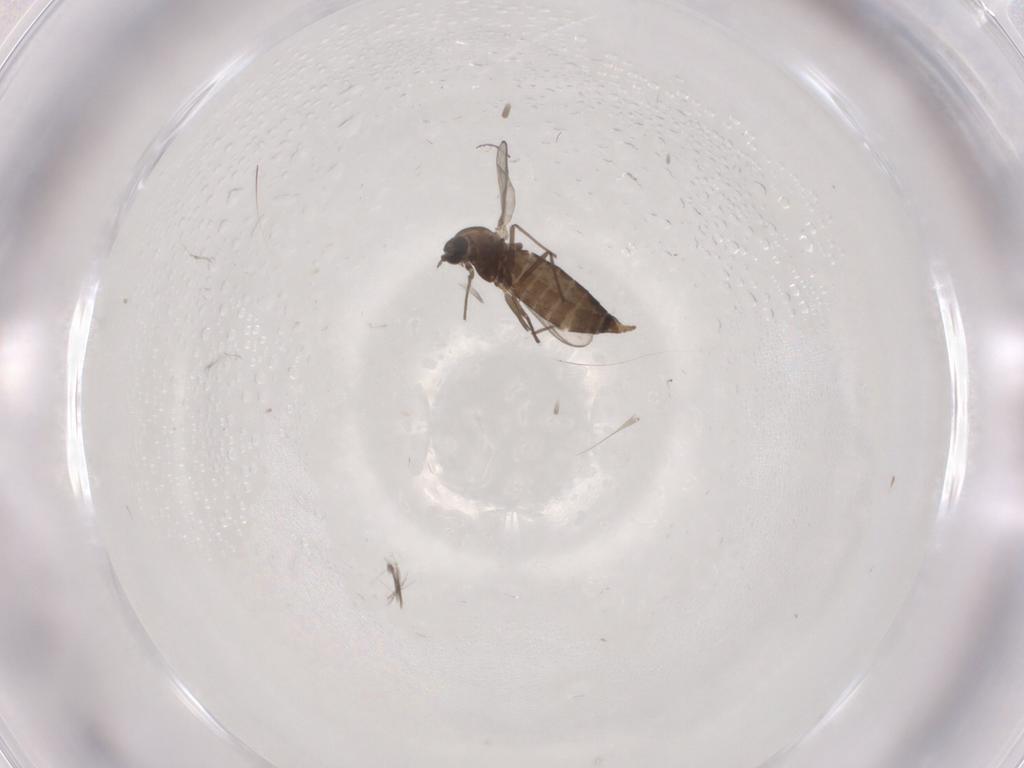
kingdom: Animalia
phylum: Arthropoda
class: Insecta
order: Diptera
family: Chironomidae
